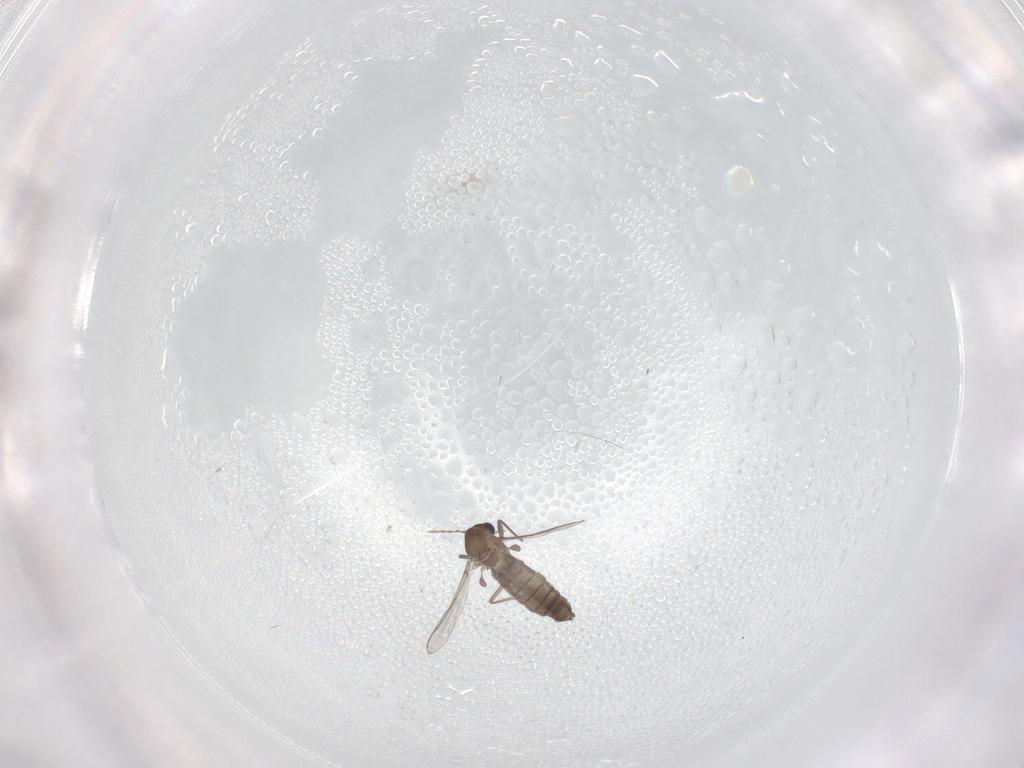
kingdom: Animalia
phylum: Arthropoda
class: Insecta
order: Diptera
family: Chironomidae
